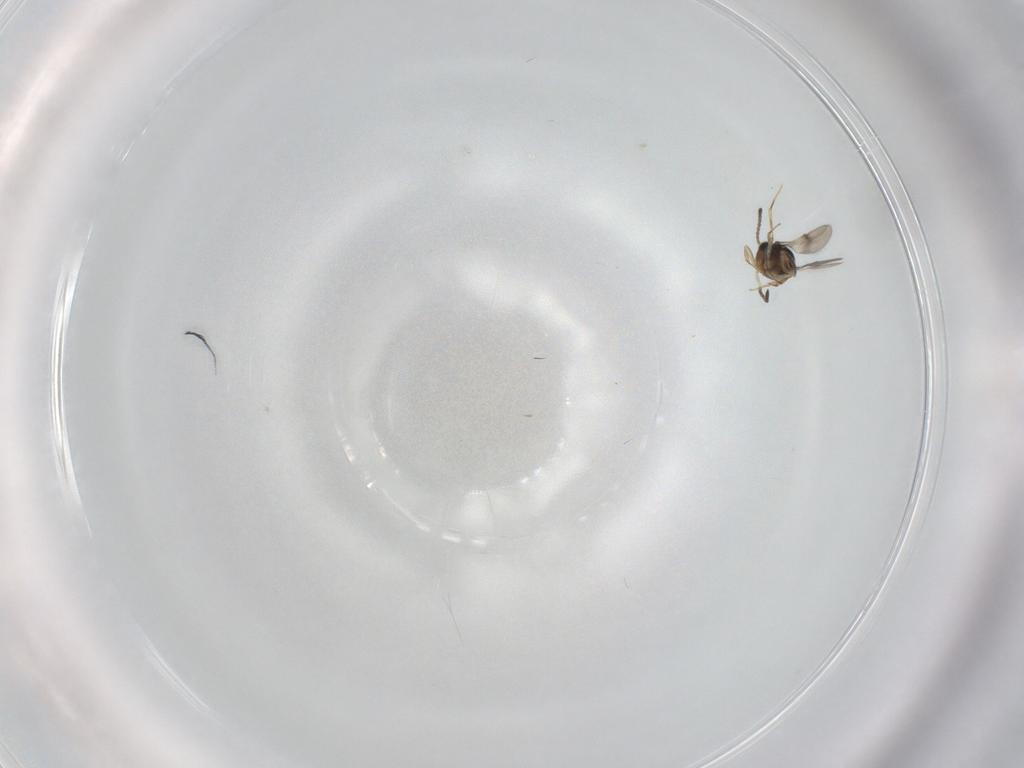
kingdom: Animalia
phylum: Arthropoda
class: Insecta
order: Hymenoptera
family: Scelionidae
